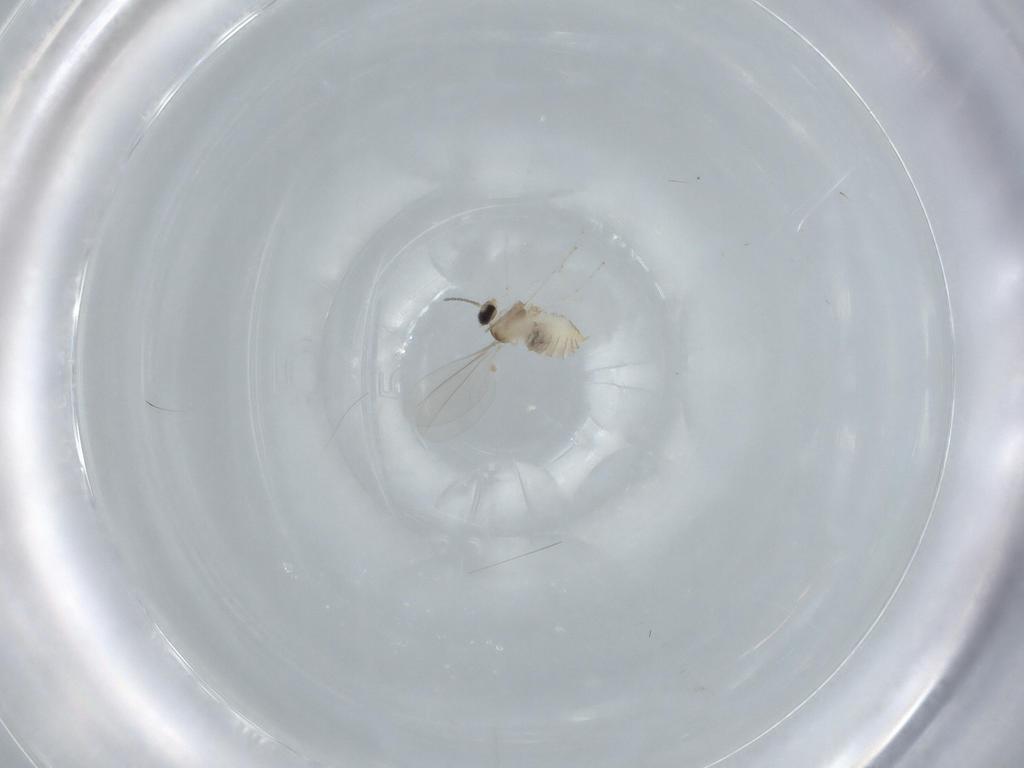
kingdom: Animalia
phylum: Arthropoda
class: Insecta
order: Diptera
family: Cecidomyiidae
